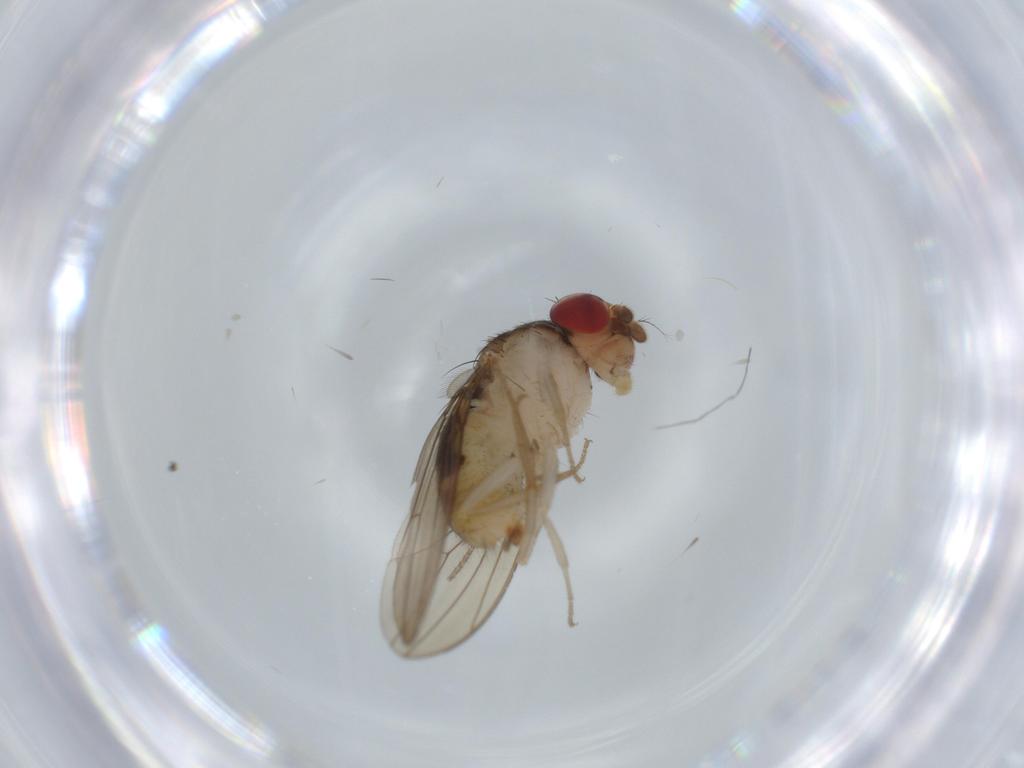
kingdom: Animalia
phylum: Arthropoda
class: Insecta
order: Diptera
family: Drosophilidae
